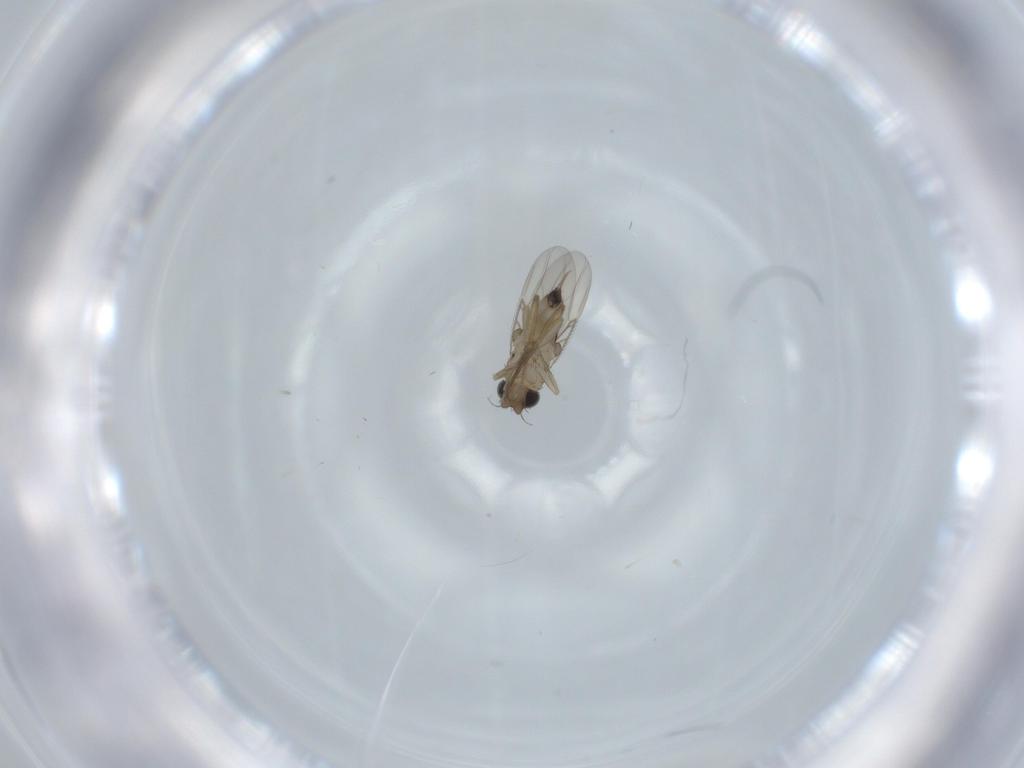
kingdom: Animalia
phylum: Arthropoda
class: Insecta
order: Diptera
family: Phoridae
